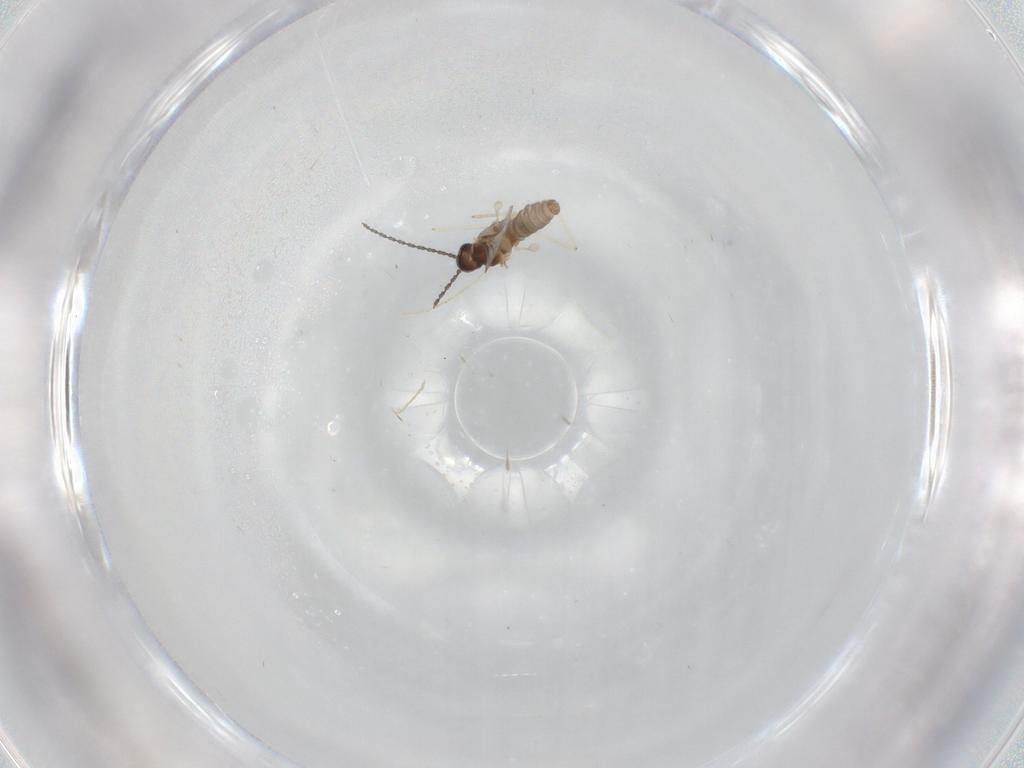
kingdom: Animalia
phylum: Arthropoda
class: Insecta
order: Diptera
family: Cecidomyiidae
